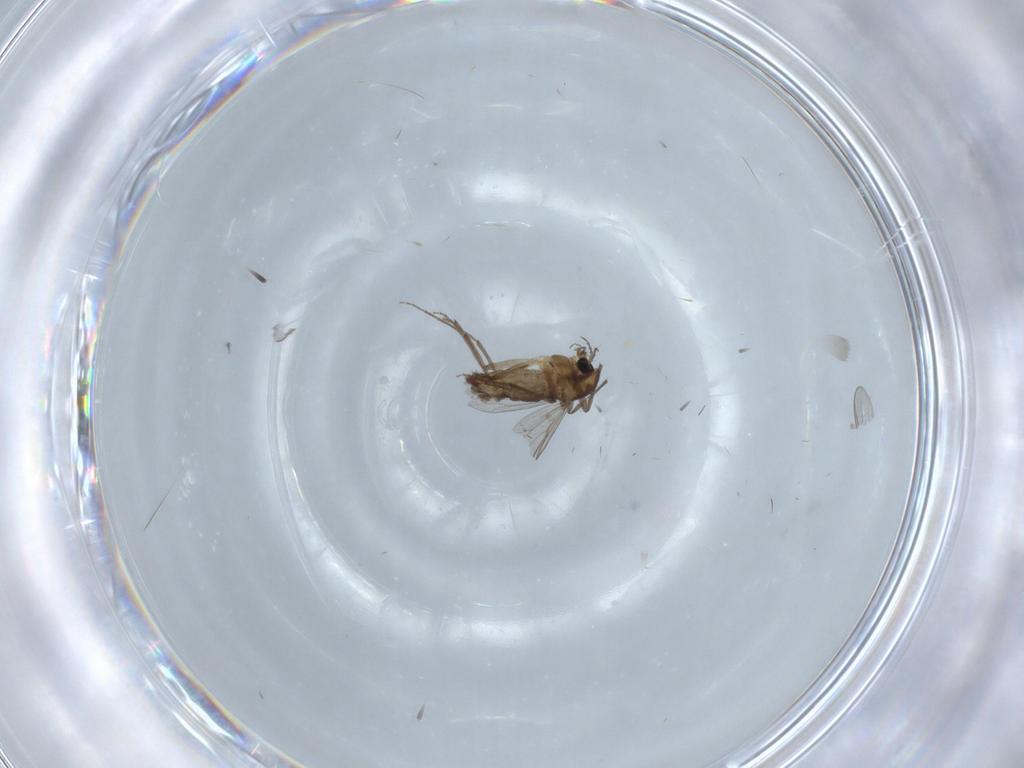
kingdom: Animalia
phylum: Arthropoda
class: Insecta
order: Diptera
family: Chironomidae
